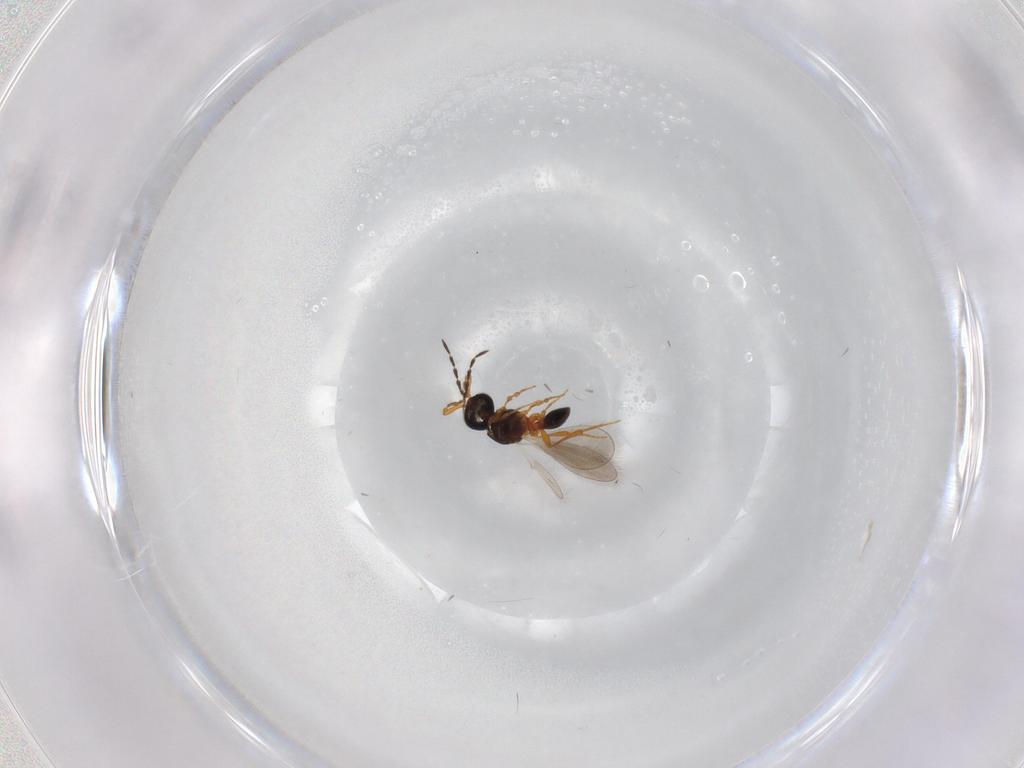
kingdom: Animalia
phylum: Arthropoda
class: Insecta
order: Hymenoptera
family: Platygastridae
